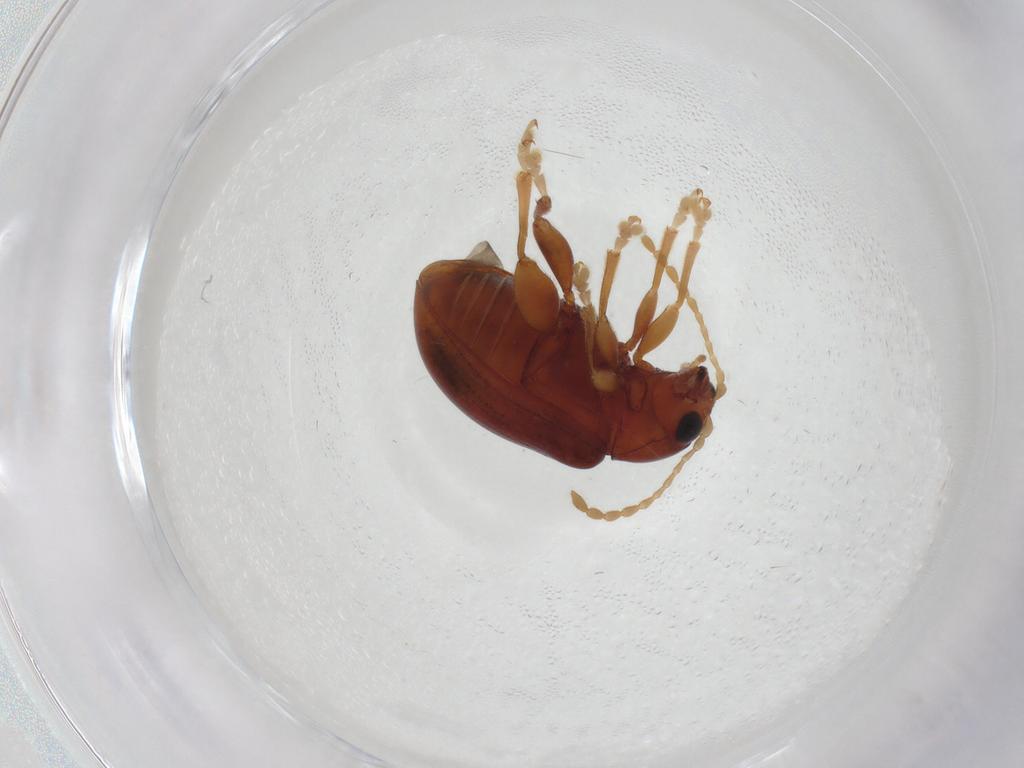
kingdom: Animalia
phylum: Arthropoda
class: Insecta
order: Coleoptera
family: Chrysomelidae
